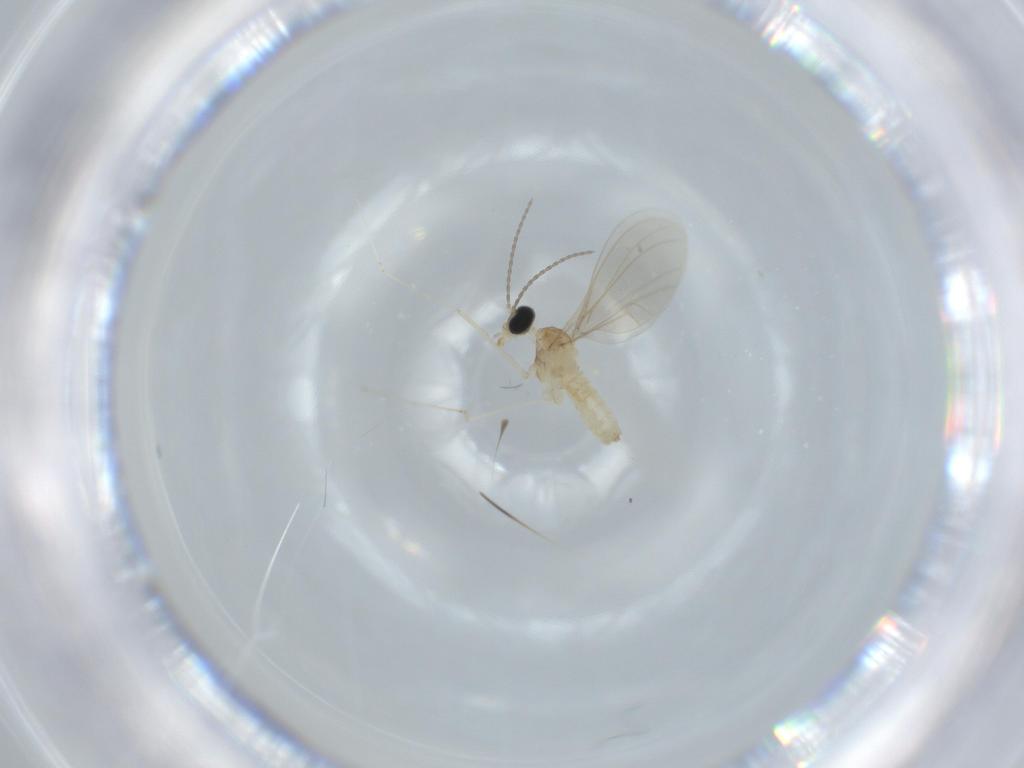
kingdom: Animalia
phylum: Arthropoda
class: Insecta
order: Diptera
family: Cecidomyiidae
